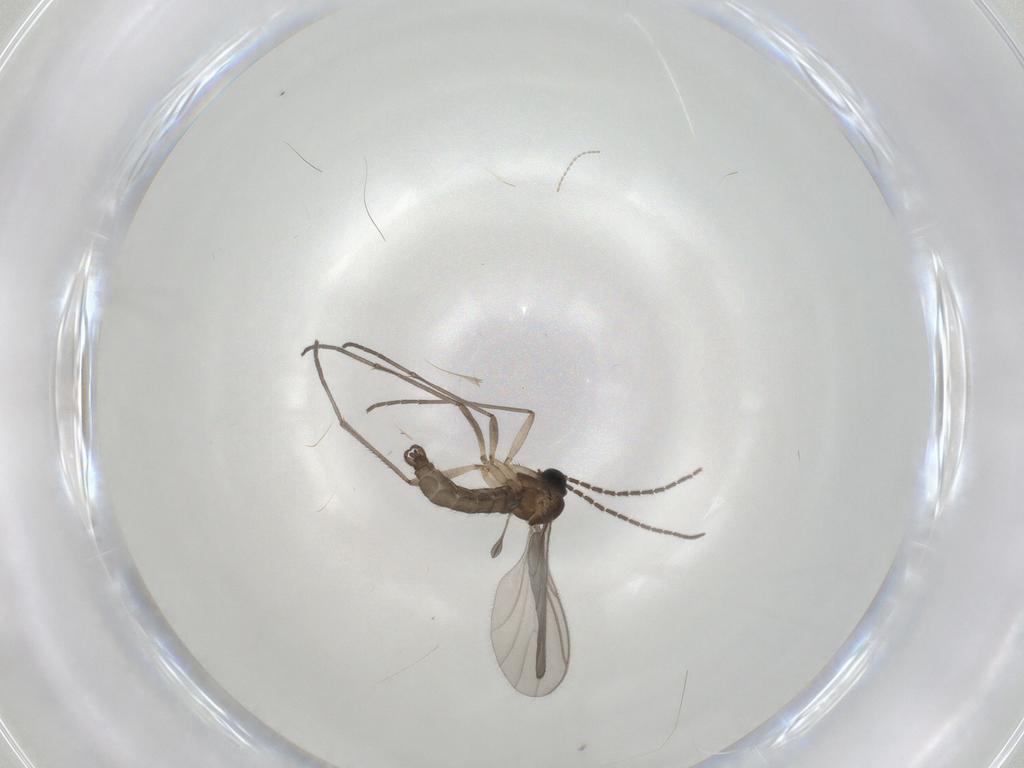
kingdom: Animalia
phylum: Arthropoda
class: Insecta
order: Diptera
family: Cecidomyiidae
